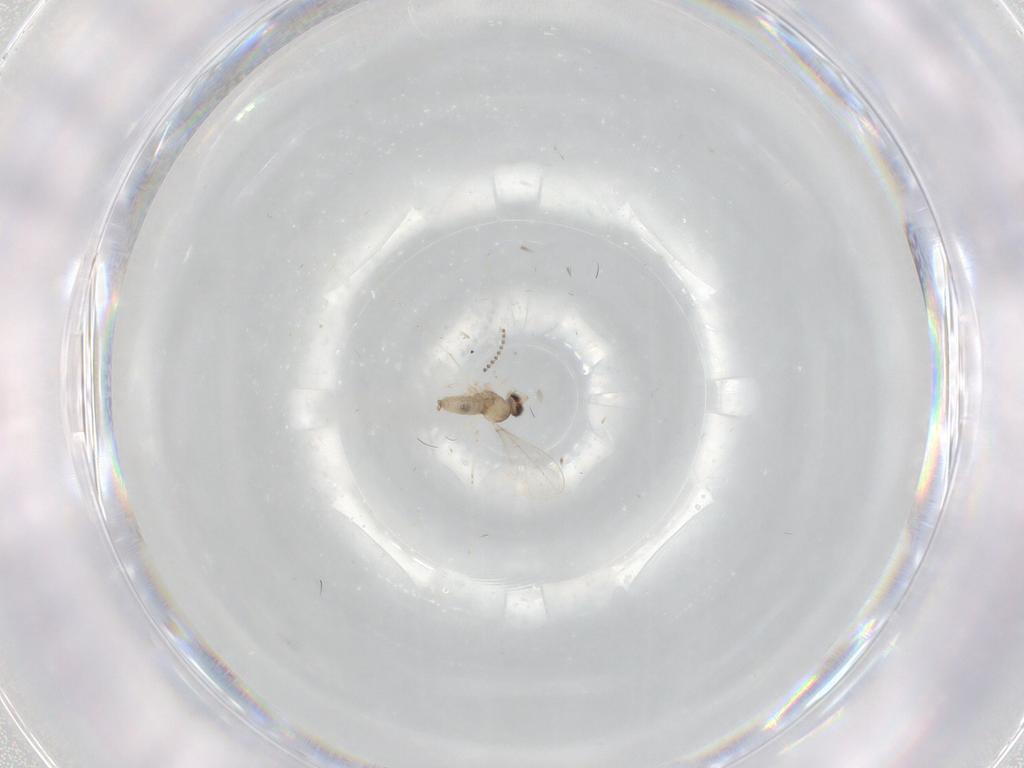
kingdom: Animalia
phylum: Arthropoda
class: Insecta
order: Diptera
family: Cecidomyiidae
